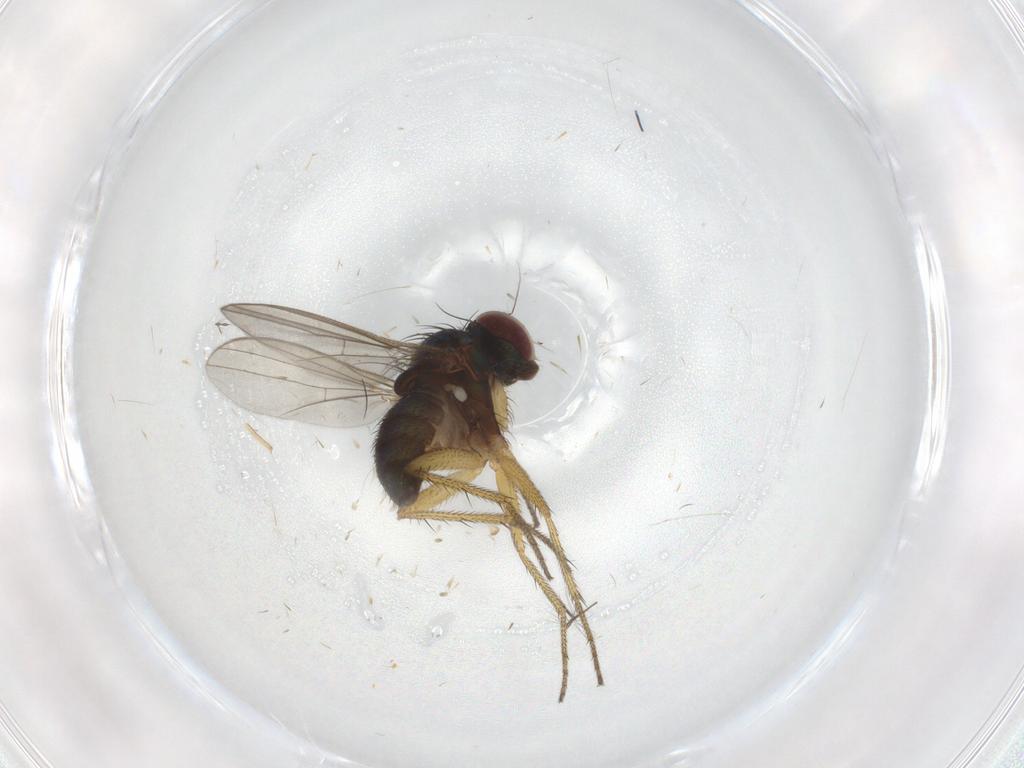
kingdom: Animalia
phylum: Arthropoda
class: Insecta
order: Diptera
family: Chironomidae
